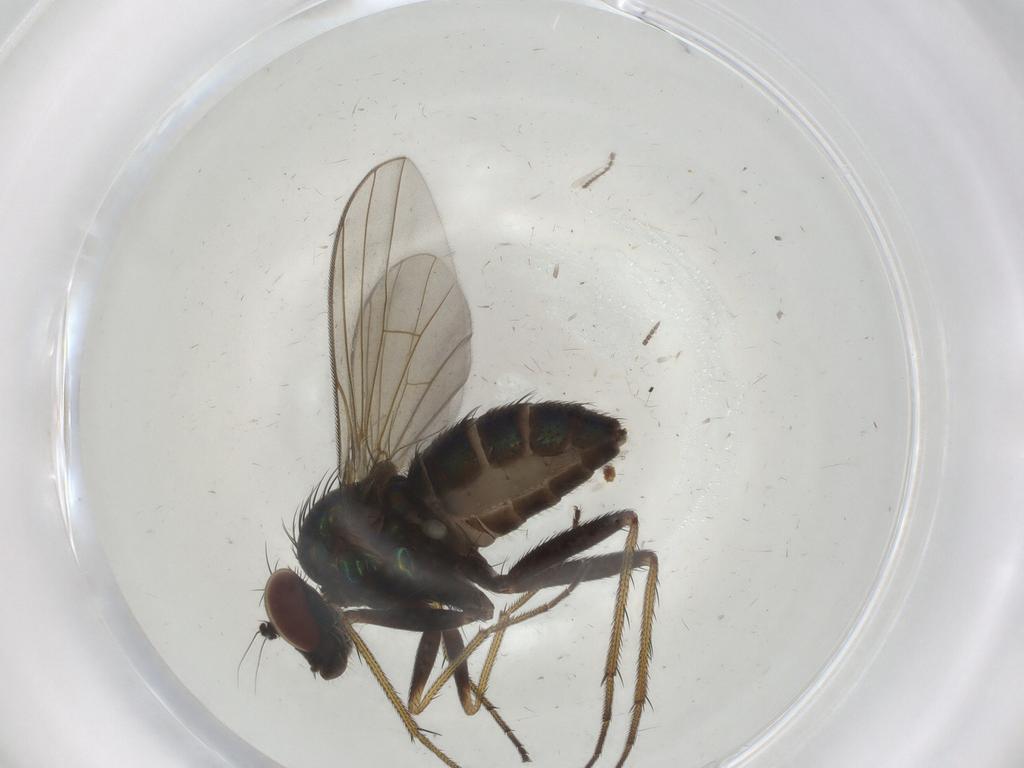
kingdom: Animalia
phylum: Arthropoda
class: Insecta
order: Diptera
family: Dolichopodidae
